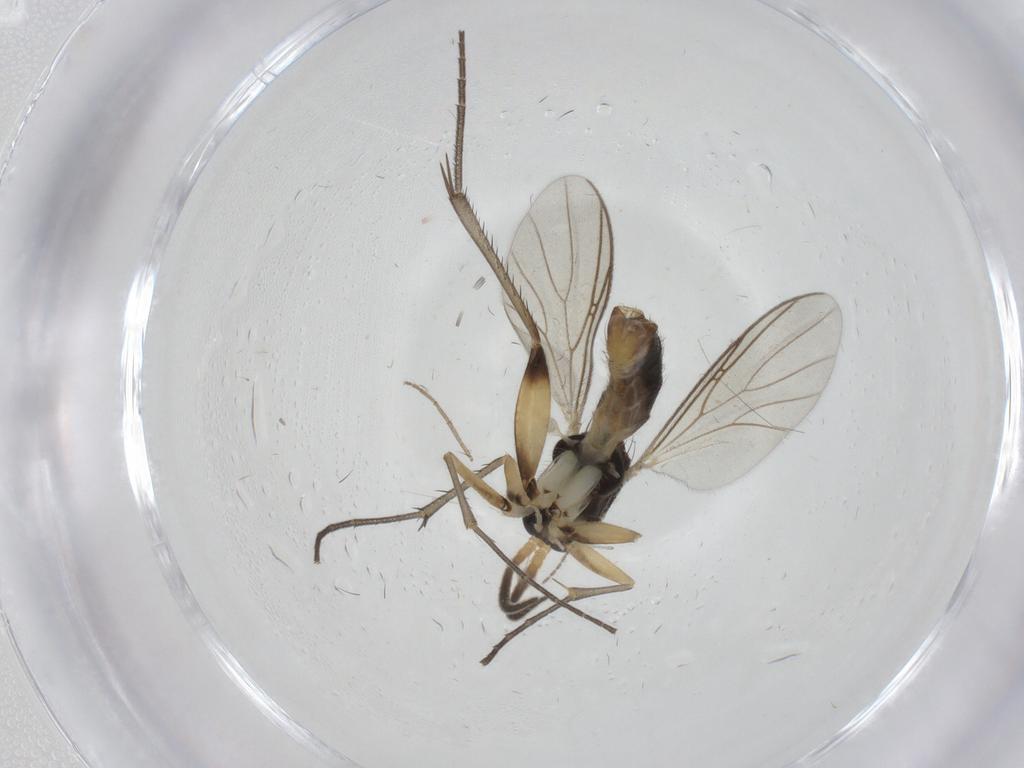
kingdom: Animalia
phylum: Arthropoda
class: Insecta
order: Diptera
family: Mycetophilidae
